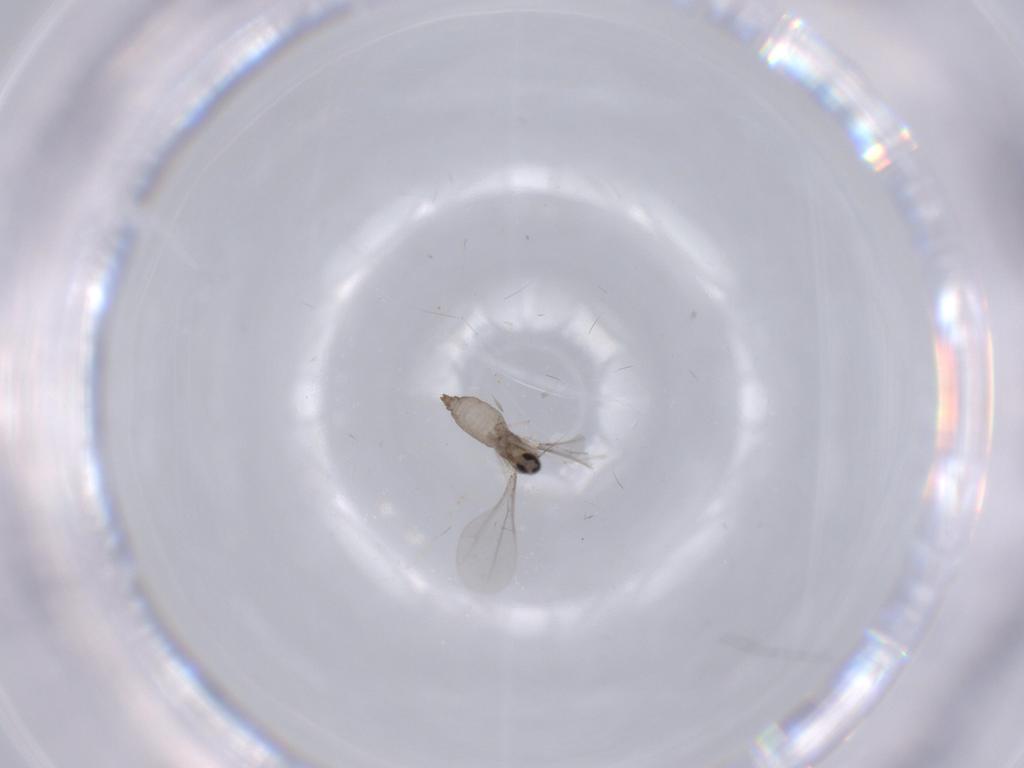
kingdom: Animalia
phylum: Arthropoda
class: Insecta
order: Diptera
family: Cecidomyiidae
